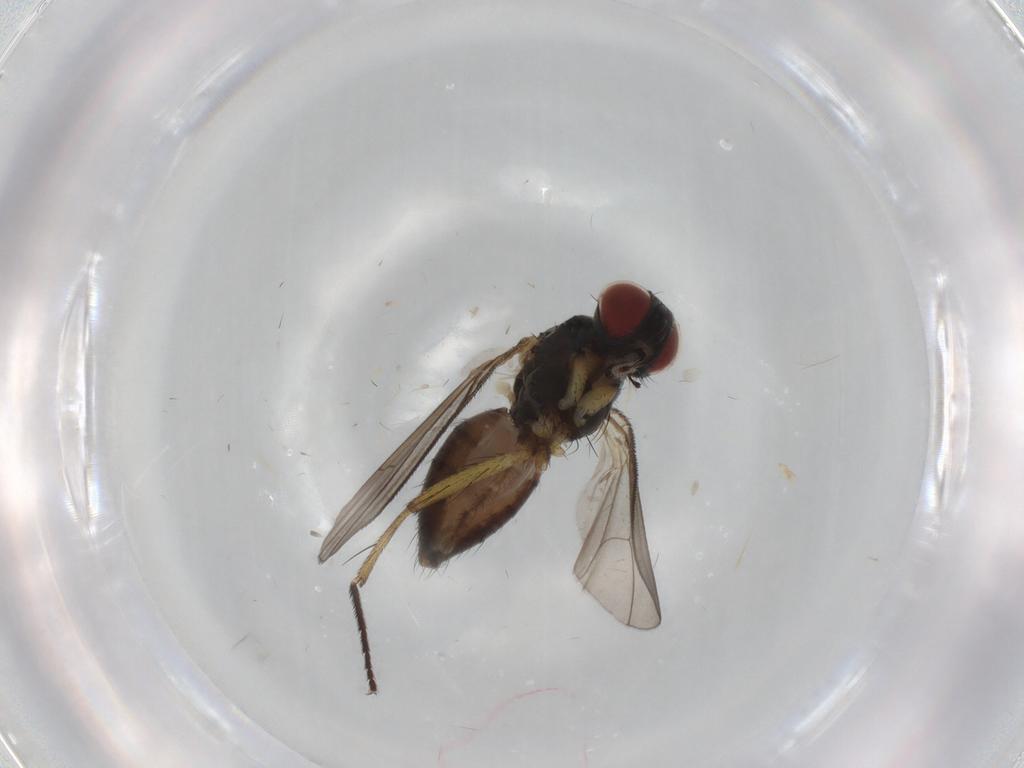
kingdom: Animalia
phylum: Arthropoda
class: Insecta
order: Diptera
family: Muscidae
